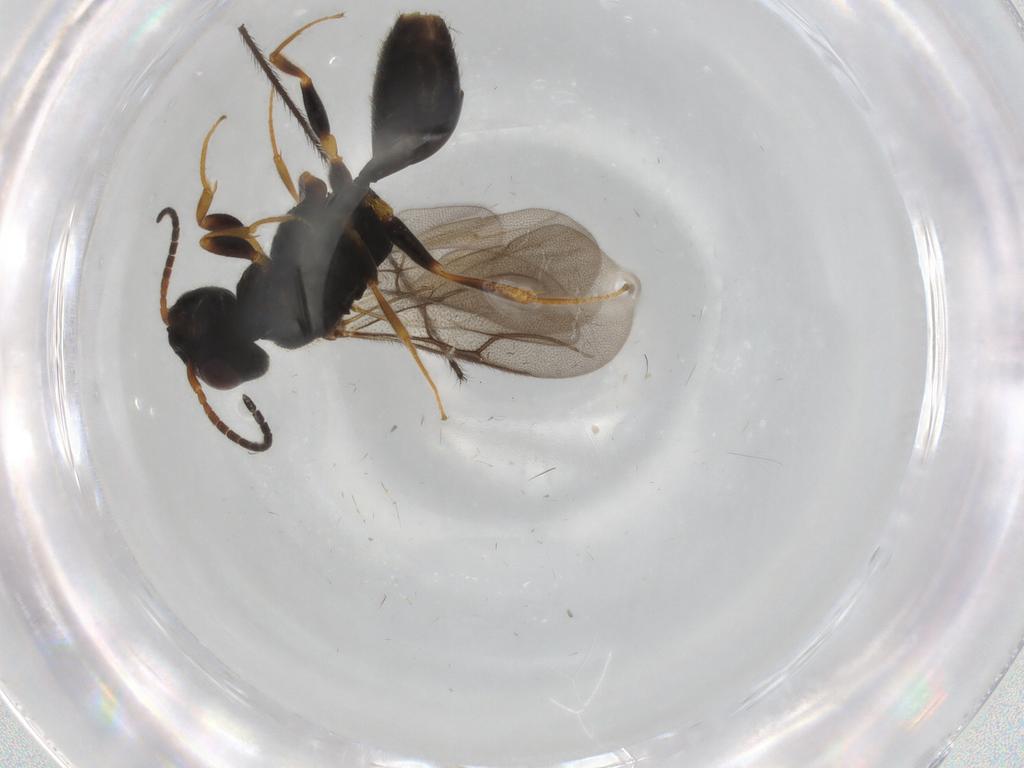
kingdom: Animalia
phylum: Arthropoda
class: Insecta
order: Hymenoptera
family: Bethylidae
